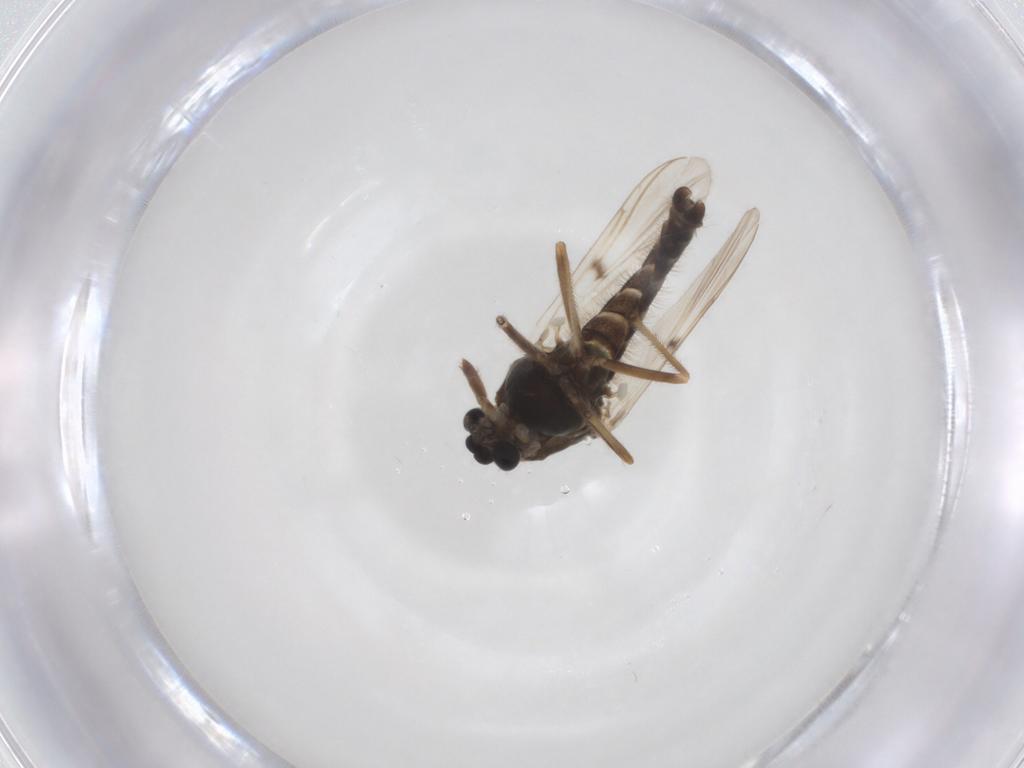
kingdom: Animalia
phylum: Arthropoda
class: Insecta
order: Diptera
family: Chironomidae
